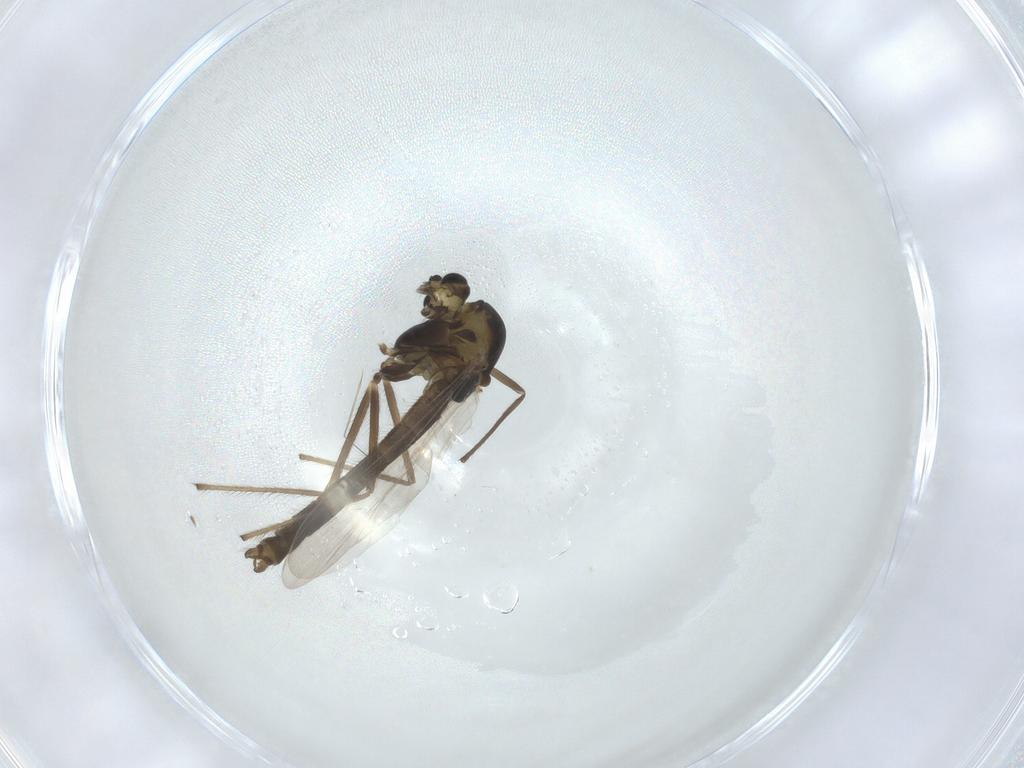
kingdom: Animalia
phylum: Arthropoda
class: Insecta
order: Diptera
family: Chironomidae
